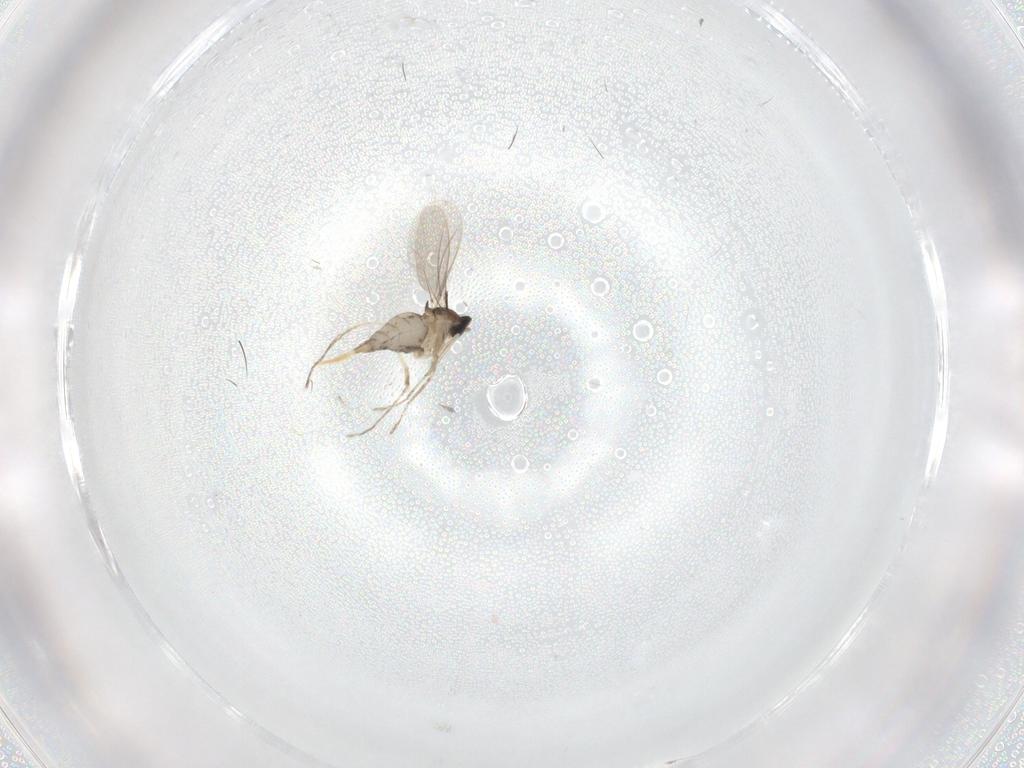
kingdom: Animalia
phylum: Arthropoda
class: Insecta
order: Diptera
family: Cecidomyiidae
